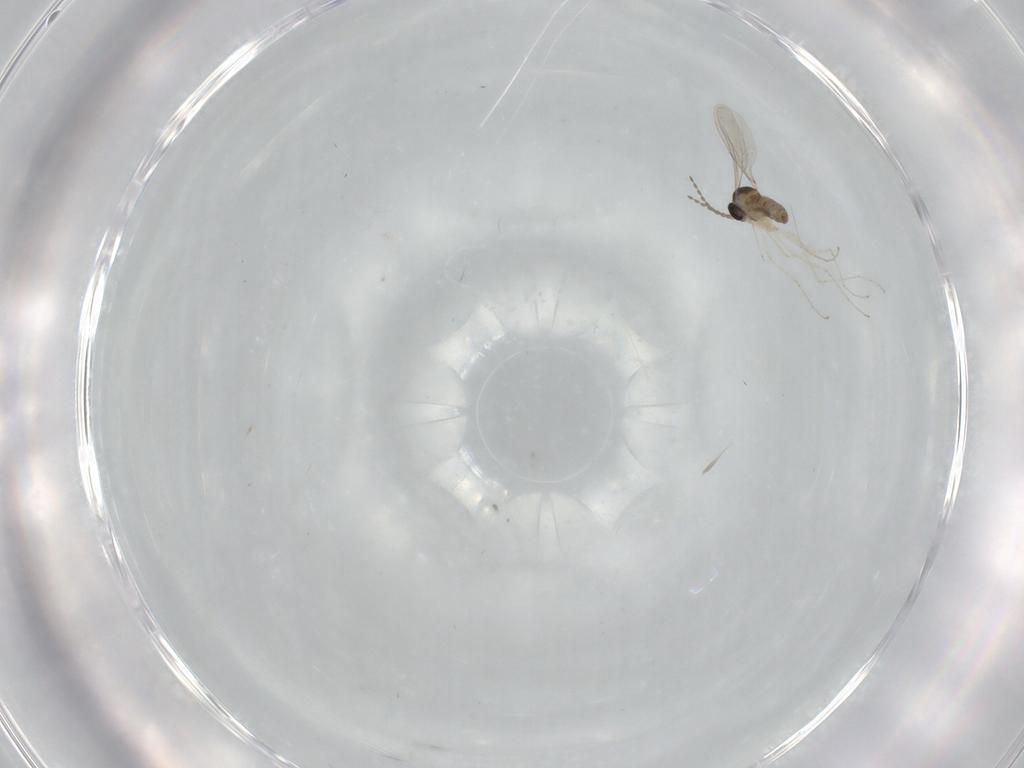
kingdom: Animalia
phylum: Arthropoda
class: Insecta
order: Diptera
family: Cecidomyiidae
